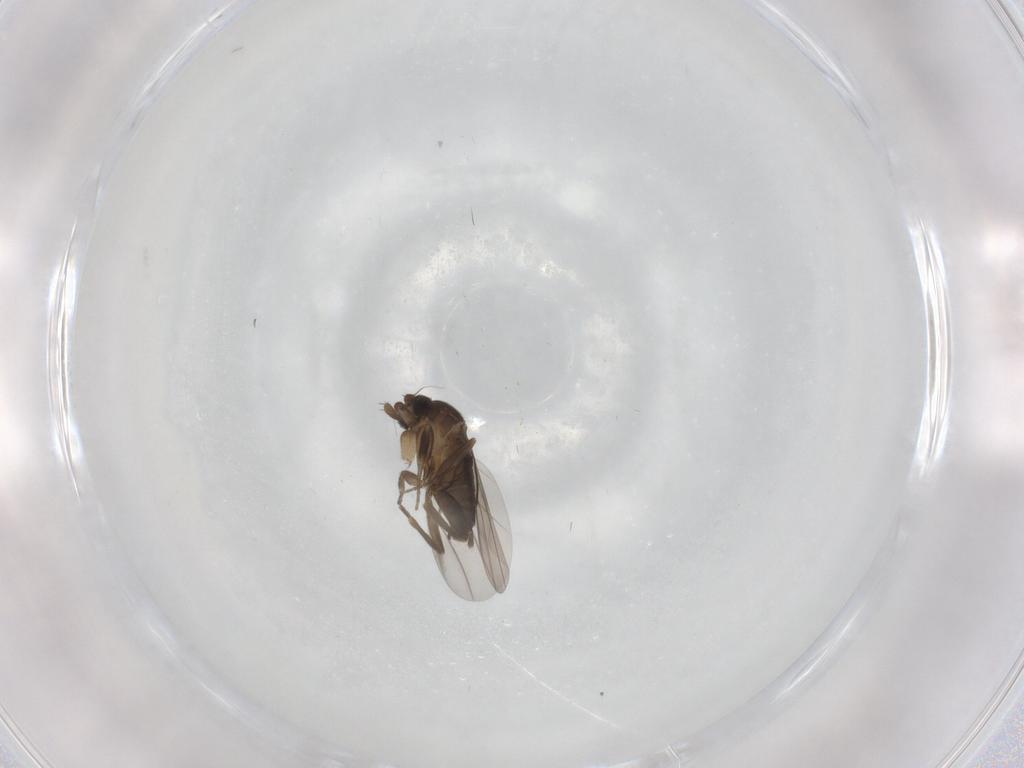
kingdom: Animalia
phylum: Arthropoda
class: Insecta
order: Diptera
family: Phoridae
